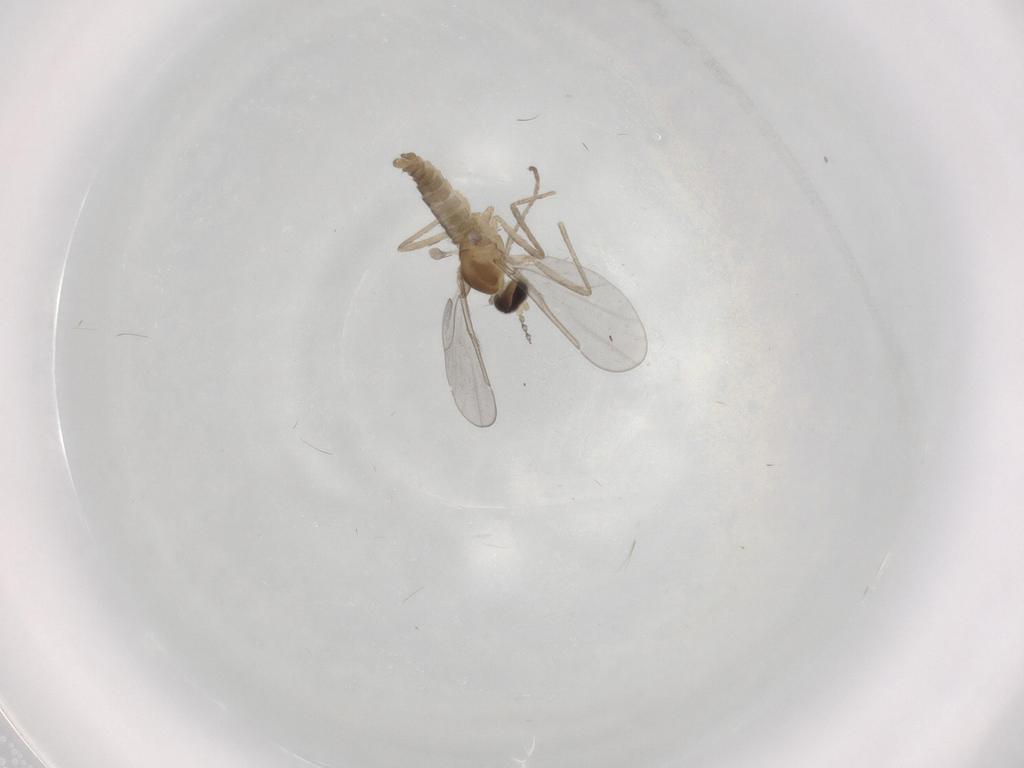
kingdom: Animalia
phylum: Arthropoda
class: Insecta
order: Diptera
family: Cecidomyiidae
